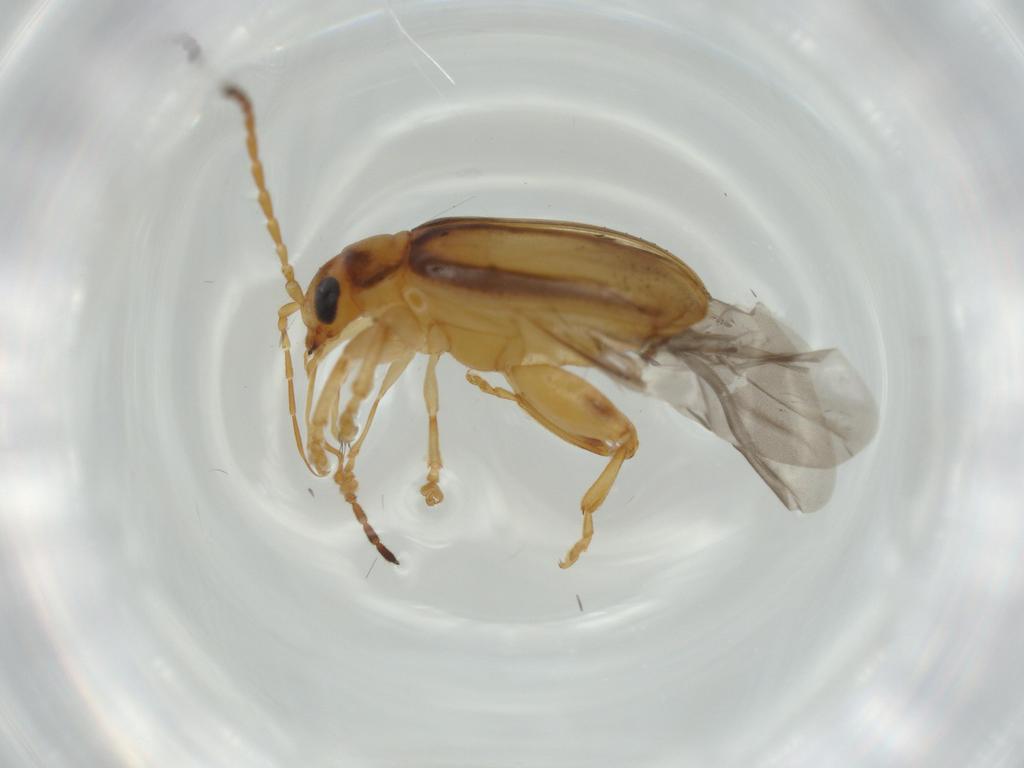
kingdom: Animalia
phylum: Arthropoda
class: Insecta
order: Coleoptera
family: Chrysomelidae
